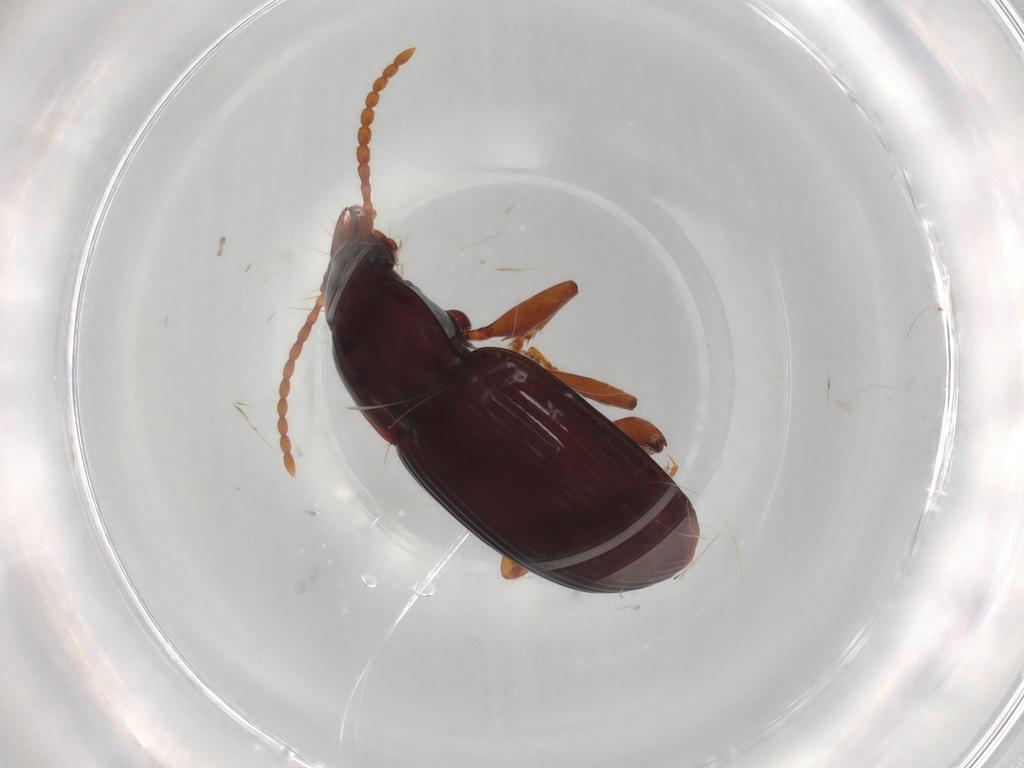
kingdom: Animalia
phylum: Arthropoda
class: Insecta
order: Coleoptera
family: Carabidae
